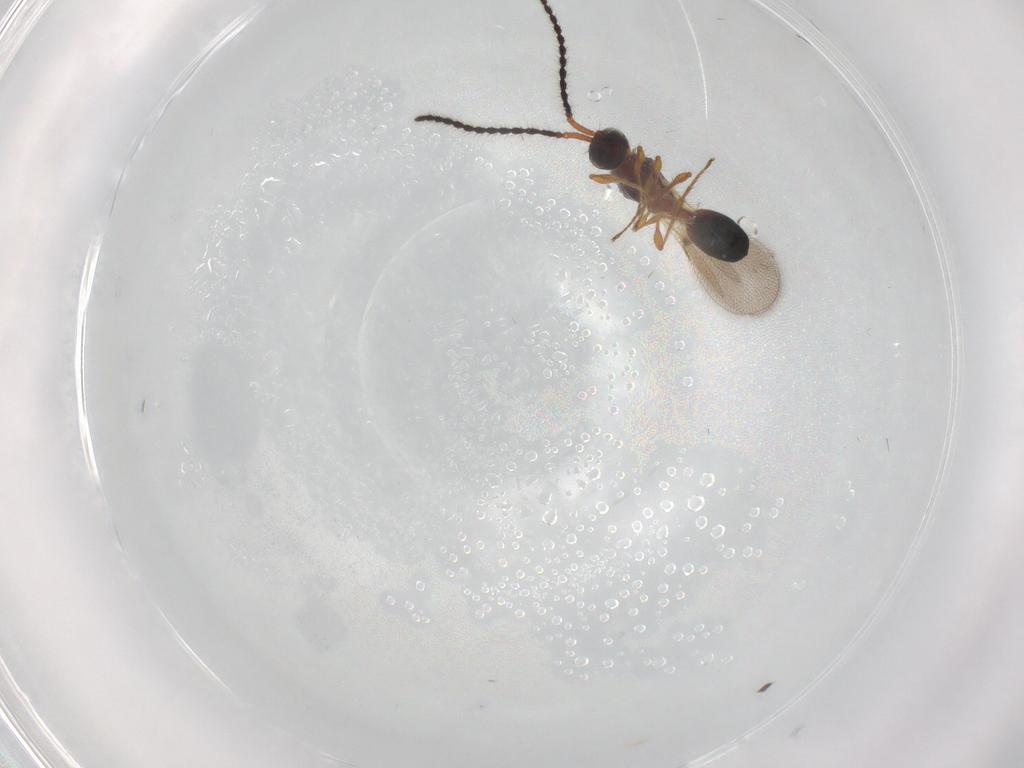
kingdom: Animalia
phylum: Arthropoda
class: Insecta
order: Hymenoptera
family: Diapriidae
